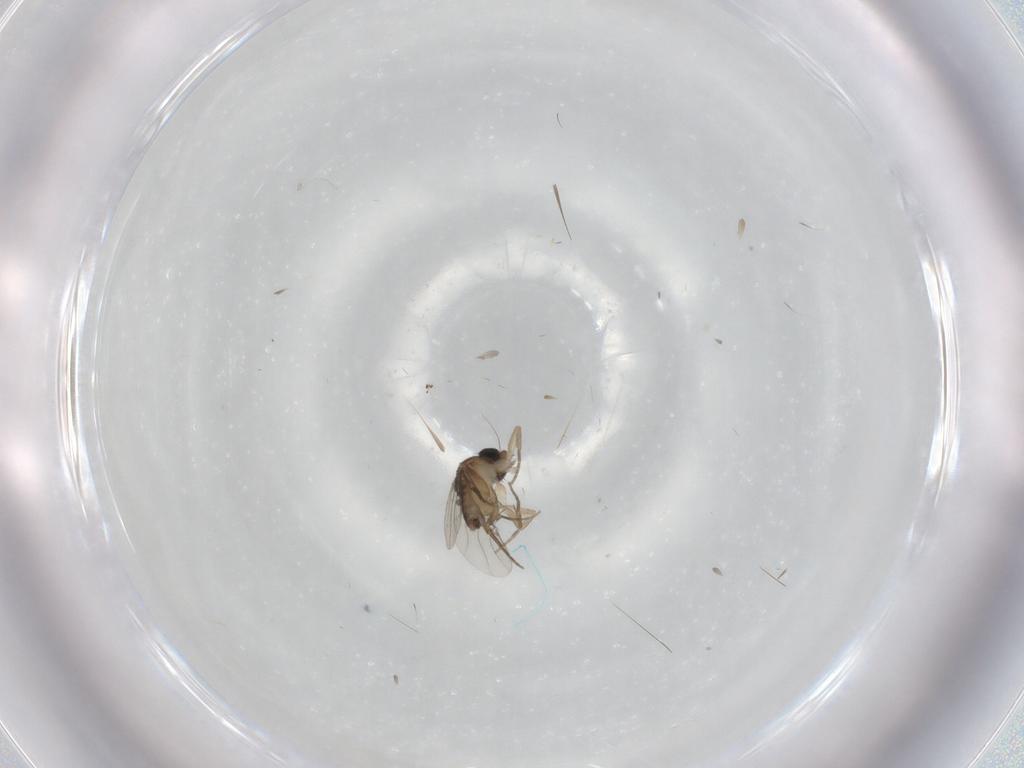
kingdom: Animalia
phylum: Arthropoda
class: Insecta
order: Diptera
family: Phoridae
